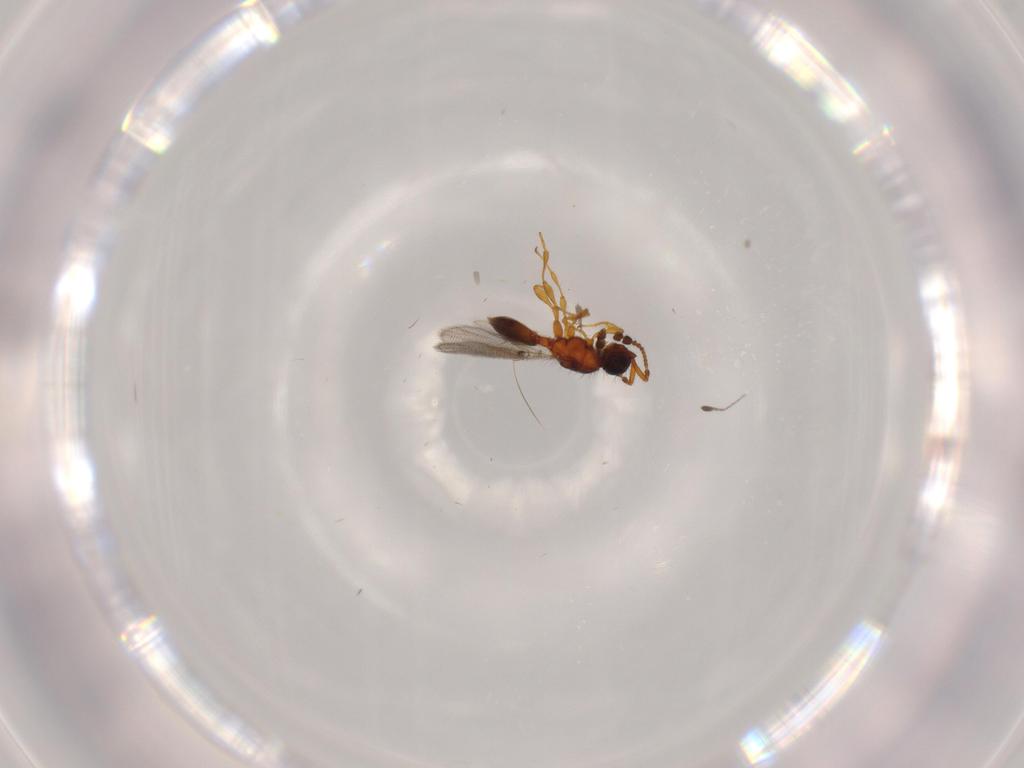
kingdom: Animalia
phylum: Arthropoda
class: Insecta
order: Hymenoptera
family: Diapriidae
